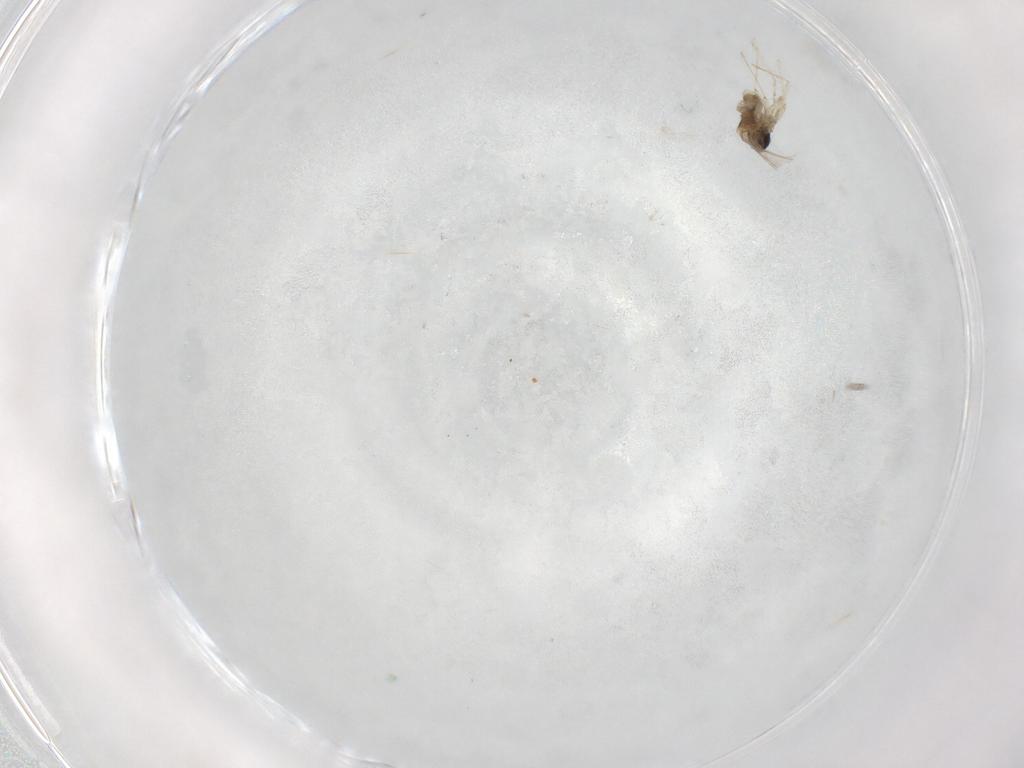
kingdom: Animalia
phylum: Arthropoda
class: Insecta
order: Diptera
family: Cecidomyiidae
